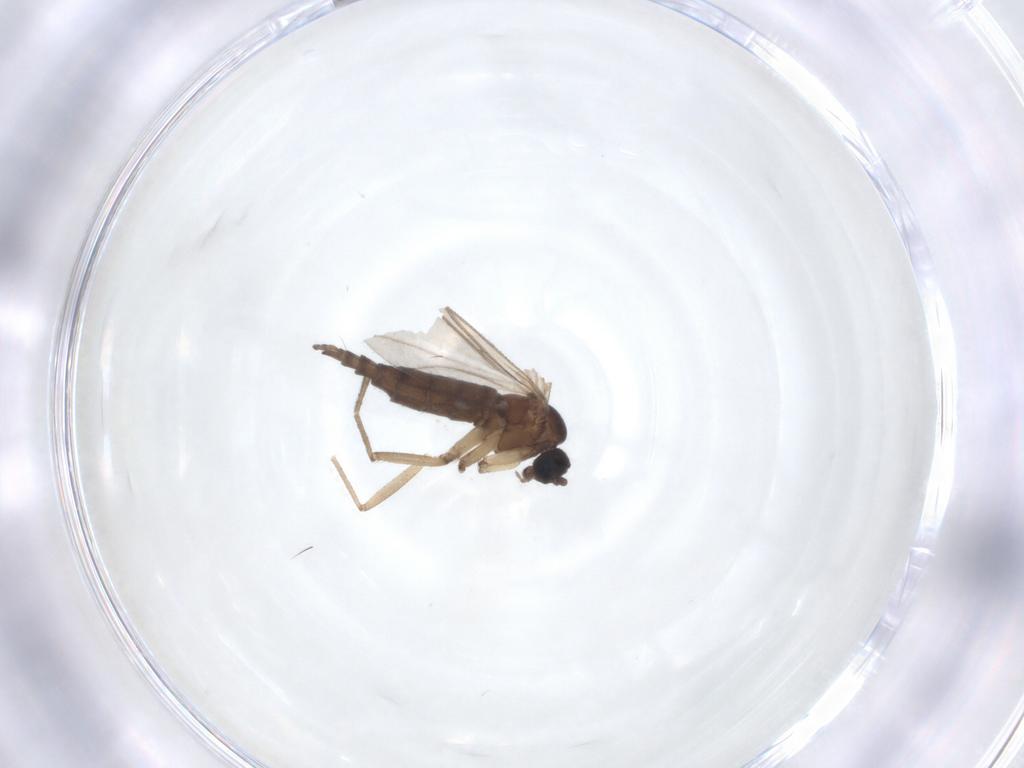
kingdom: Animalia
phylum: Arthropoda
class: Insecta
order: Diptera
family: Sciaridae
